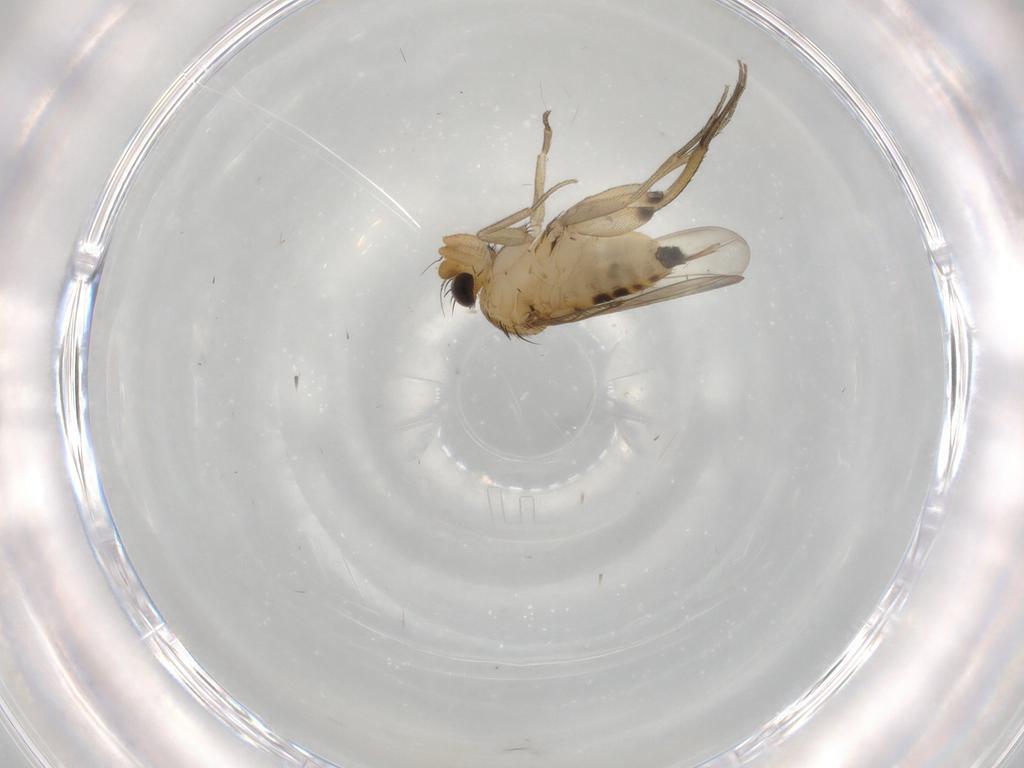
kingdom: Animalia
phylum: Arthropoda
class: Insecta
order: Diptera
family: Phoridae
